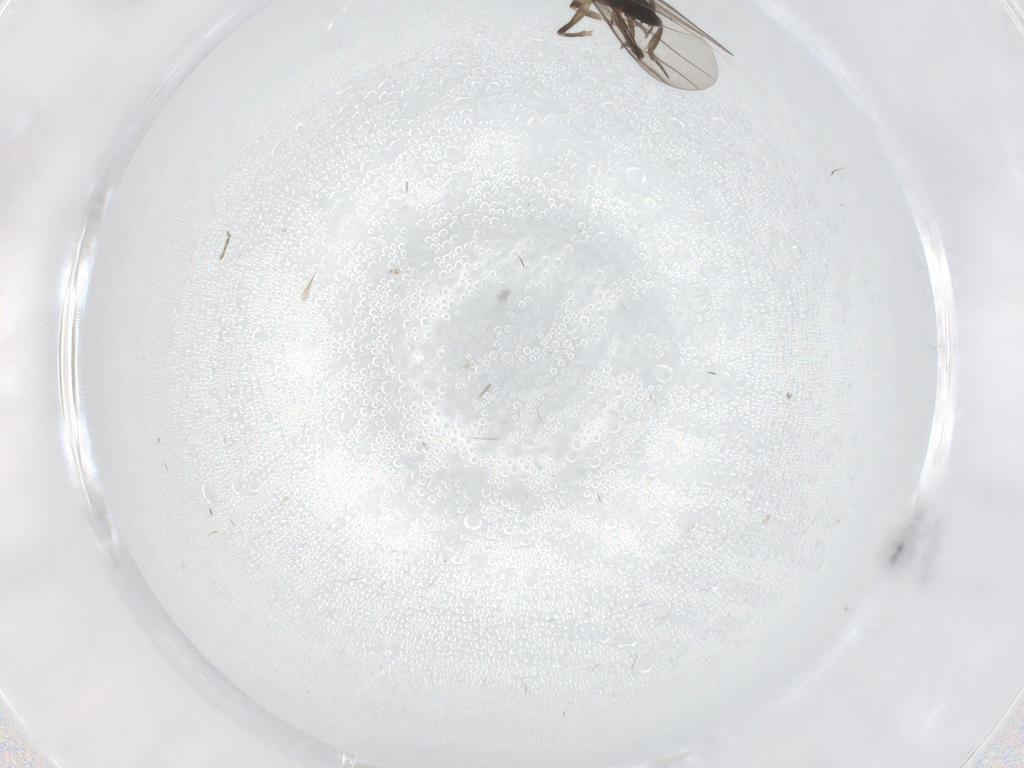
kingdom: Animalia
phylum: Arthropoda
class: Insecta
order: Diptera
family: Milichiidae
